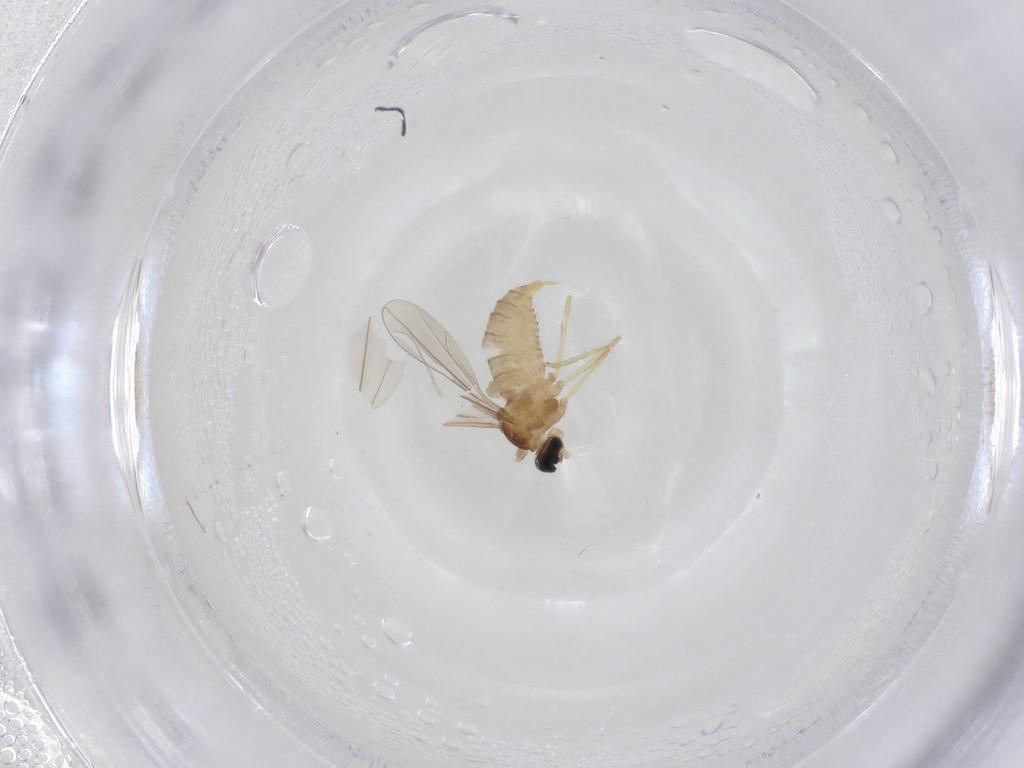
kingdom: Animalia
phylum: Arthropoda
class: Insecta
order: Diptera
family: Cecidomyiidae
